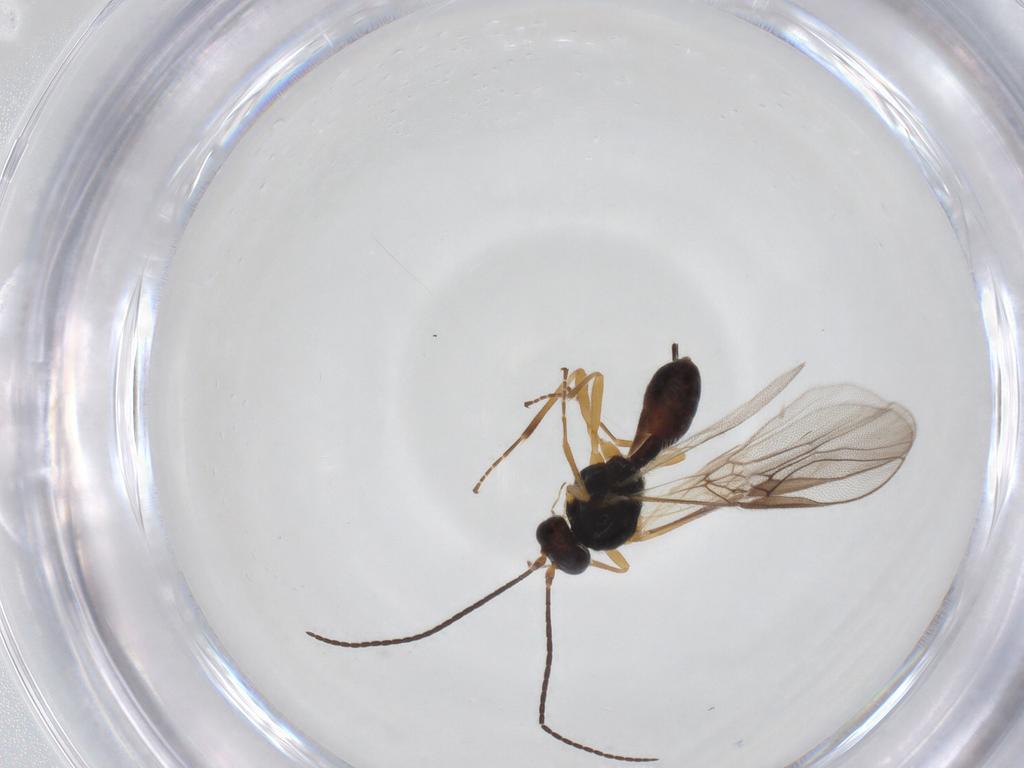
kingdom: Animalia
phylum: Arthropoda
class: Insecta
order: Hymenoptera
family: Braconidae
